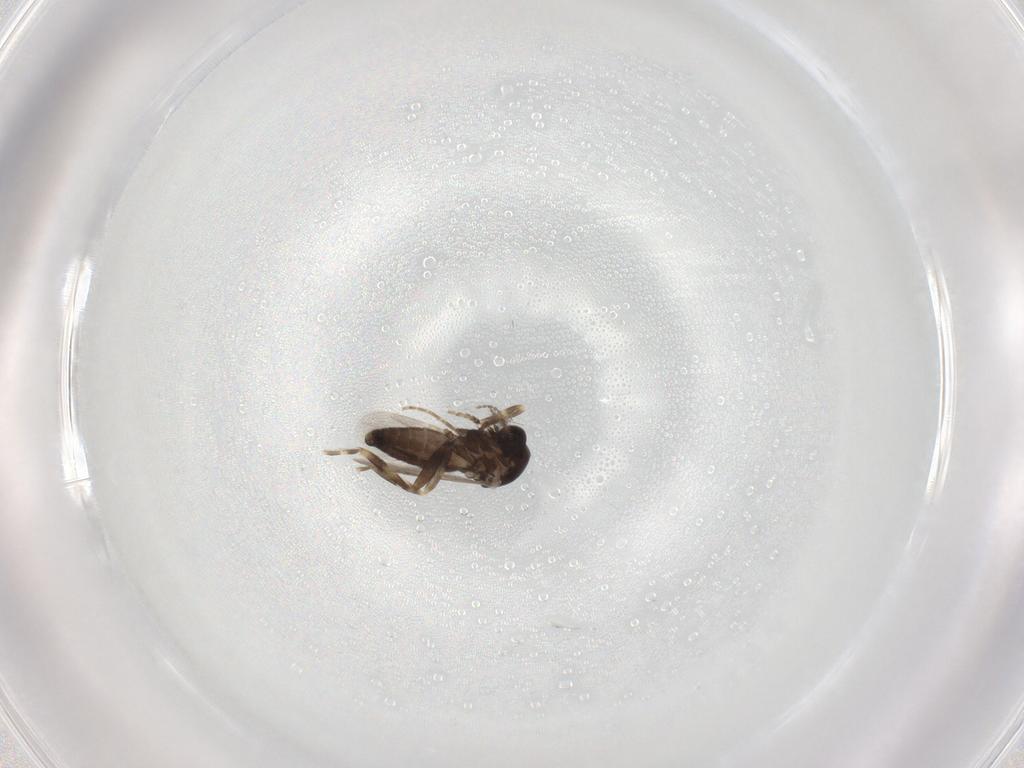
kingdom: Animalia
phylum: Arthropoda
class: Insecta
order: Diptera
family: Ceratopogonidae
